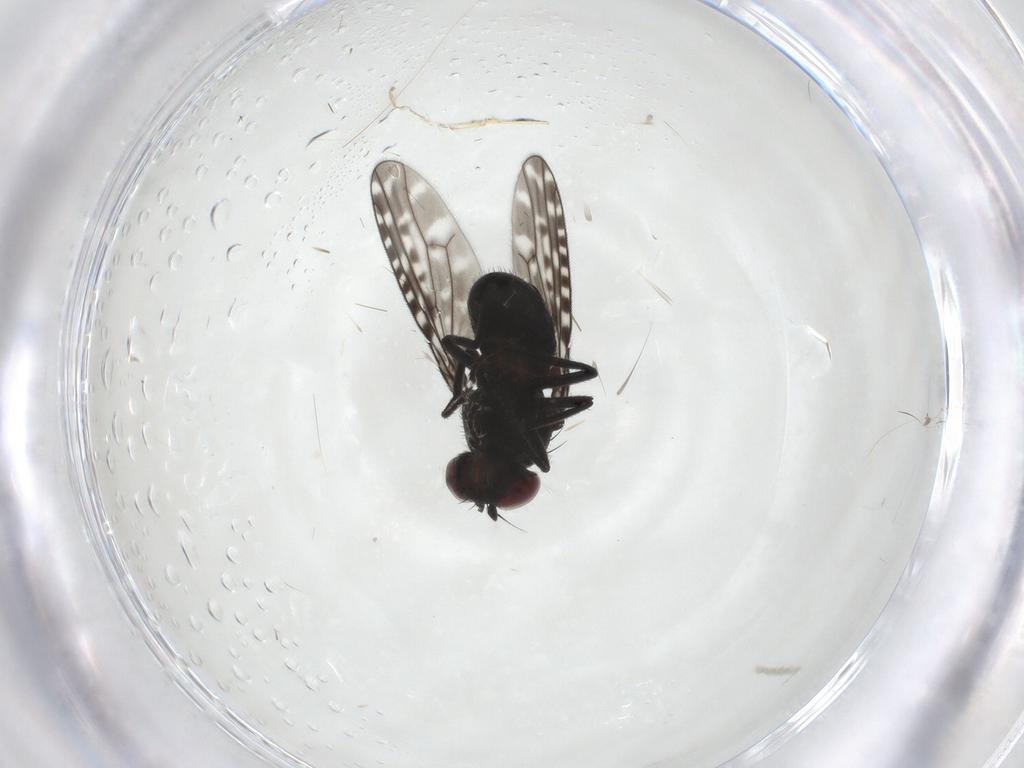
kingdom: Animalia
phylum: Arthropoda
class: Insecta
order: Diptera
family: Ephydridae
